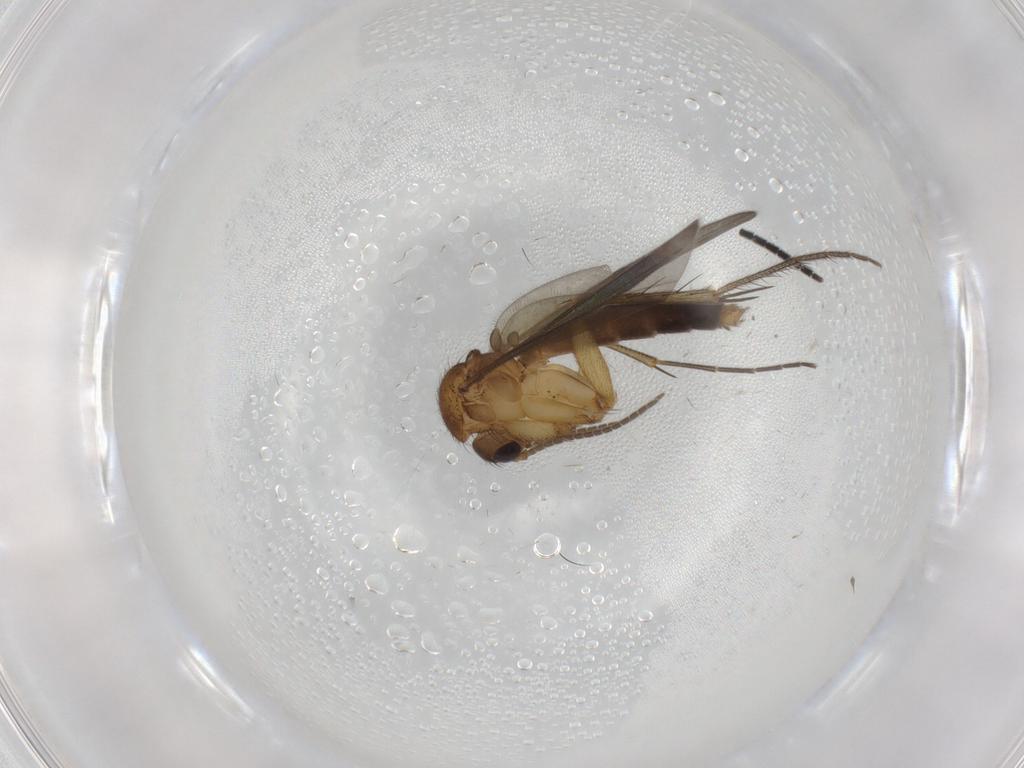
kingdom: Animalia
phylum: Arthropoda
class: Insecta
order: Diptera
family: Mycetophilidae
